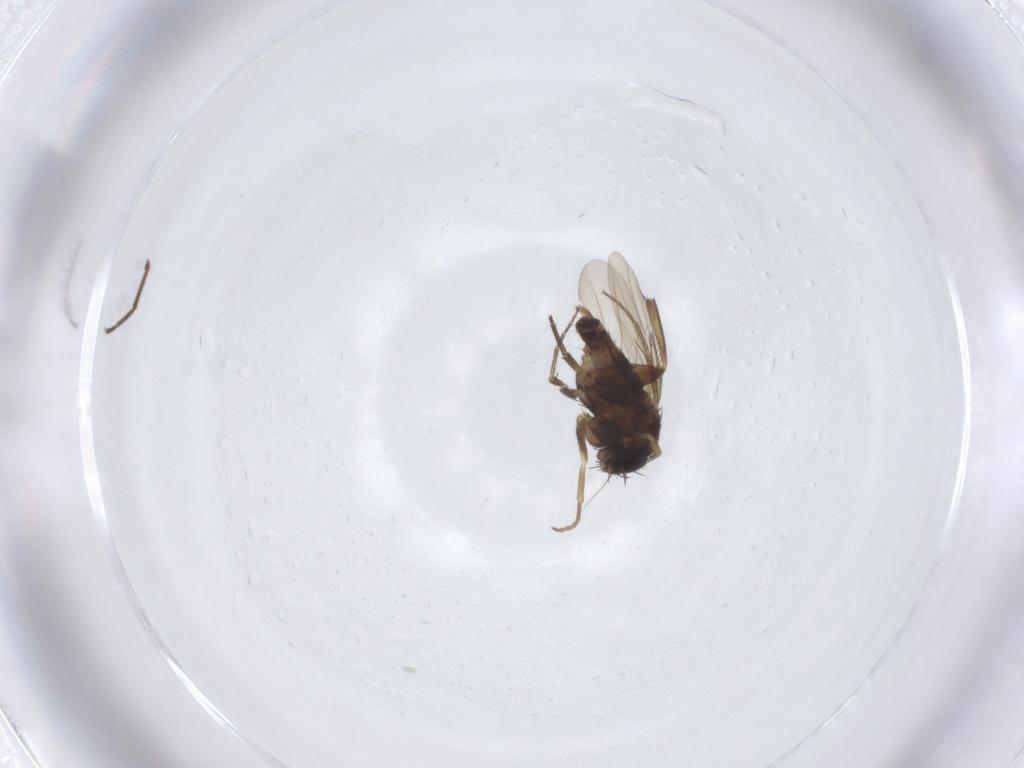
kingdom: Animalia
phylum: Arthropoda
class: Insecta
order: Diptera
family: Phoridae
